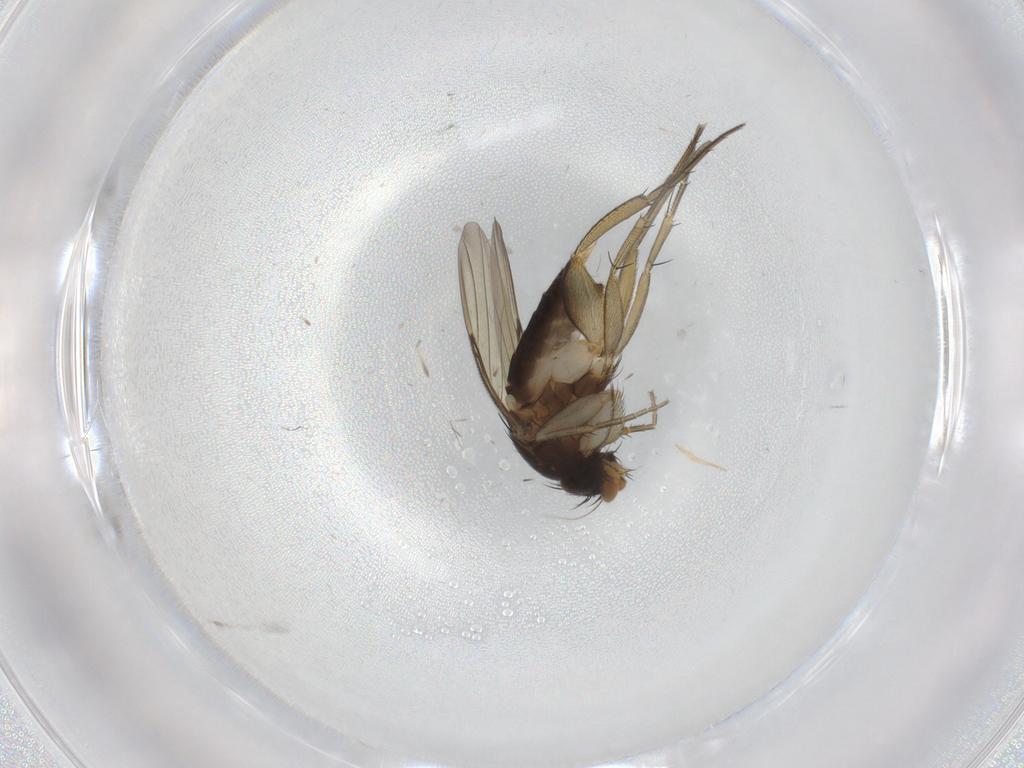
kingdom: Animalia
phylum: Arthropoda
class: Insecta
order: Diptera
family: Phoridae
